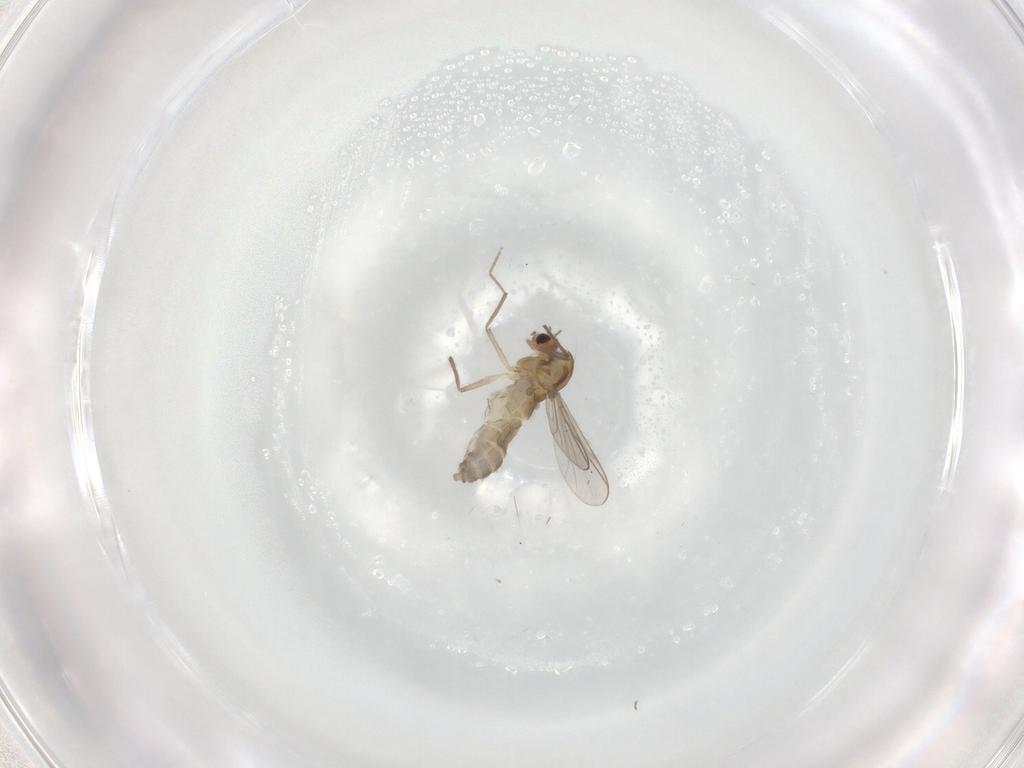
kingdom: Animalia
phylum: Arthropoda
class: Insecta
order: Diptera
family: Chironomidae
